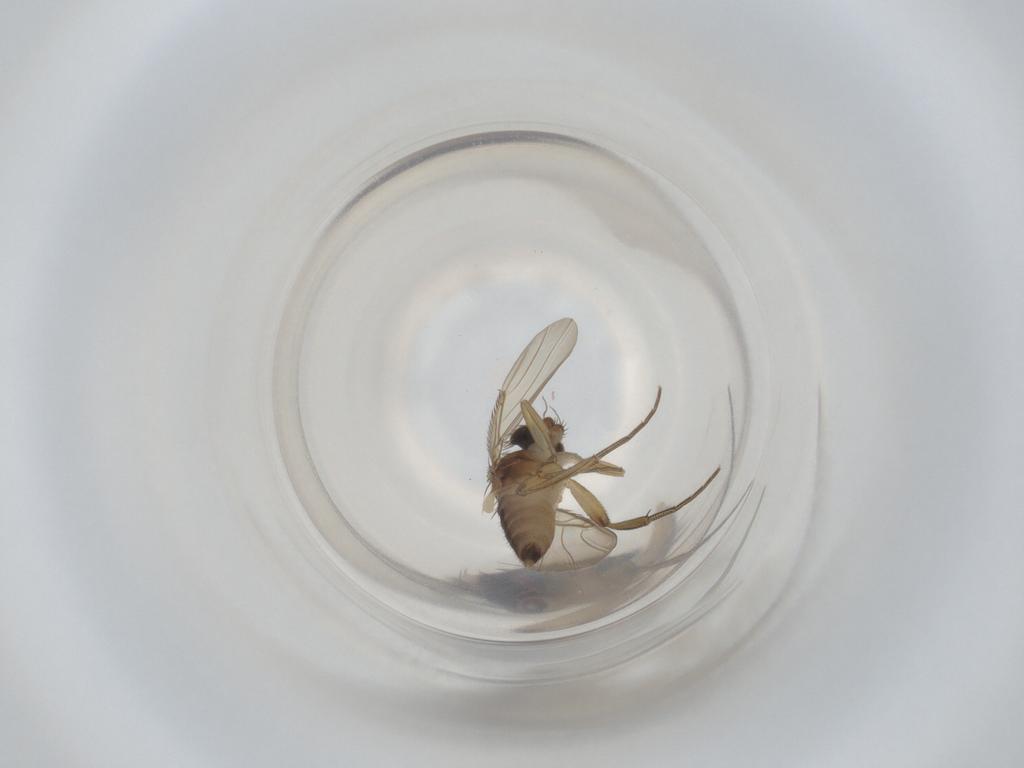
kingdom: Animalia
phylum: Arthropoda
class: Insecta
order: Diptera
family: Phoridae
